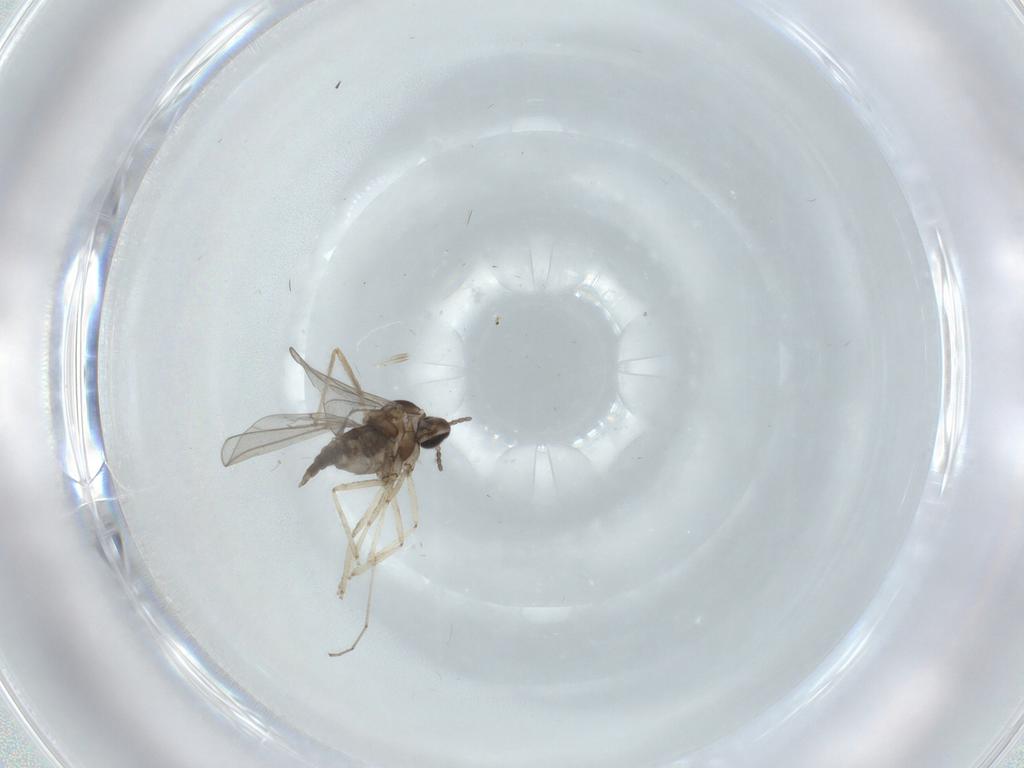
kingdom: Animalia
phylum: Arthropoda
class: Insecta
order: Diptera
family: Cecidomyiidae
